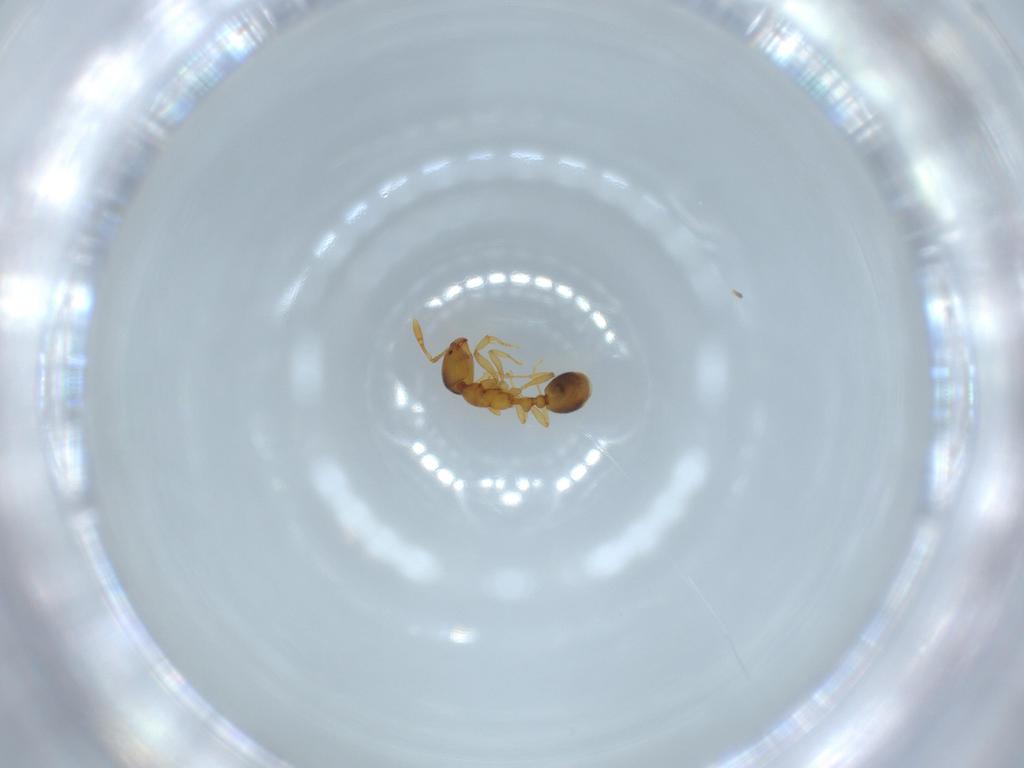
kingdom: Animalia
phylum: Arthropoda
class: Insecta
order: Hymenoptera
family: Formicidae
